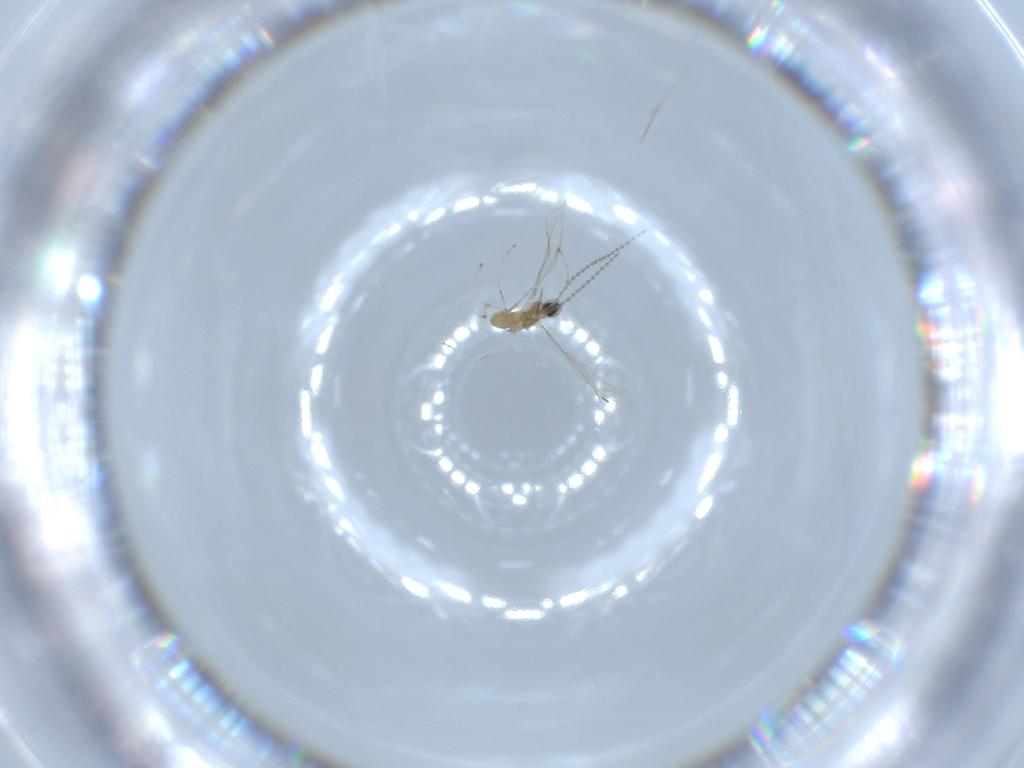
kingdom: Animalia
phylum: Arthropoda
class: Insecta
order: Diptera
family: Cecidomyiidae
